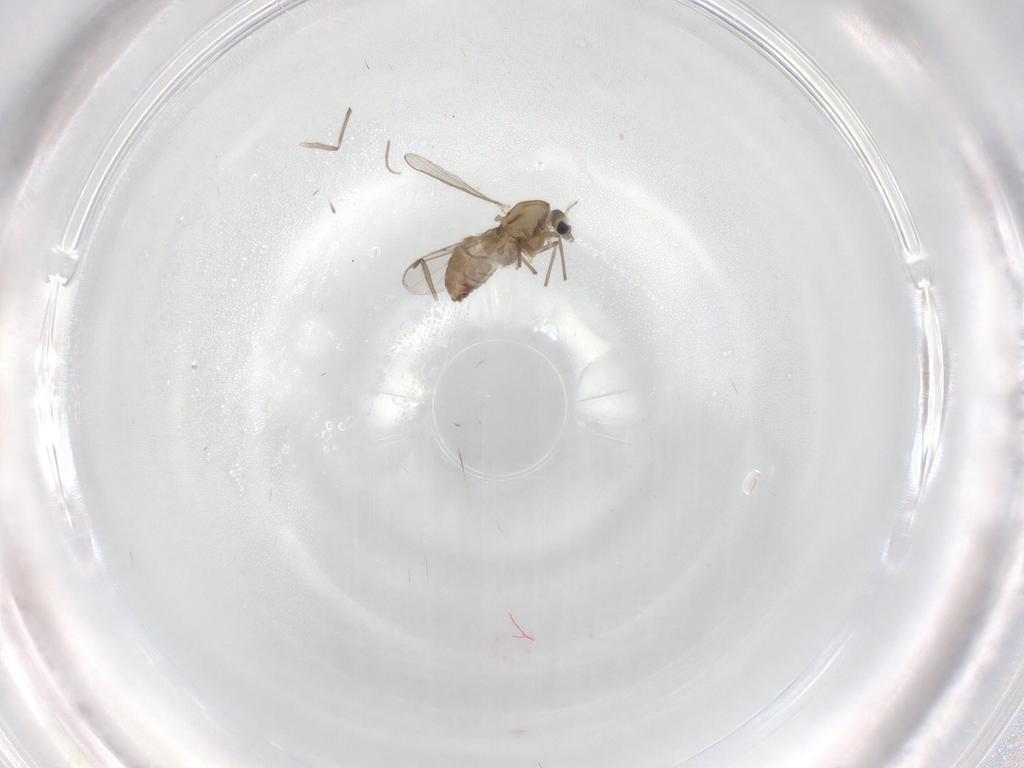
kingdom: Animalia
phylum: Arthropoda
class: Insecta
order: Diptera
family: Chironomidae
